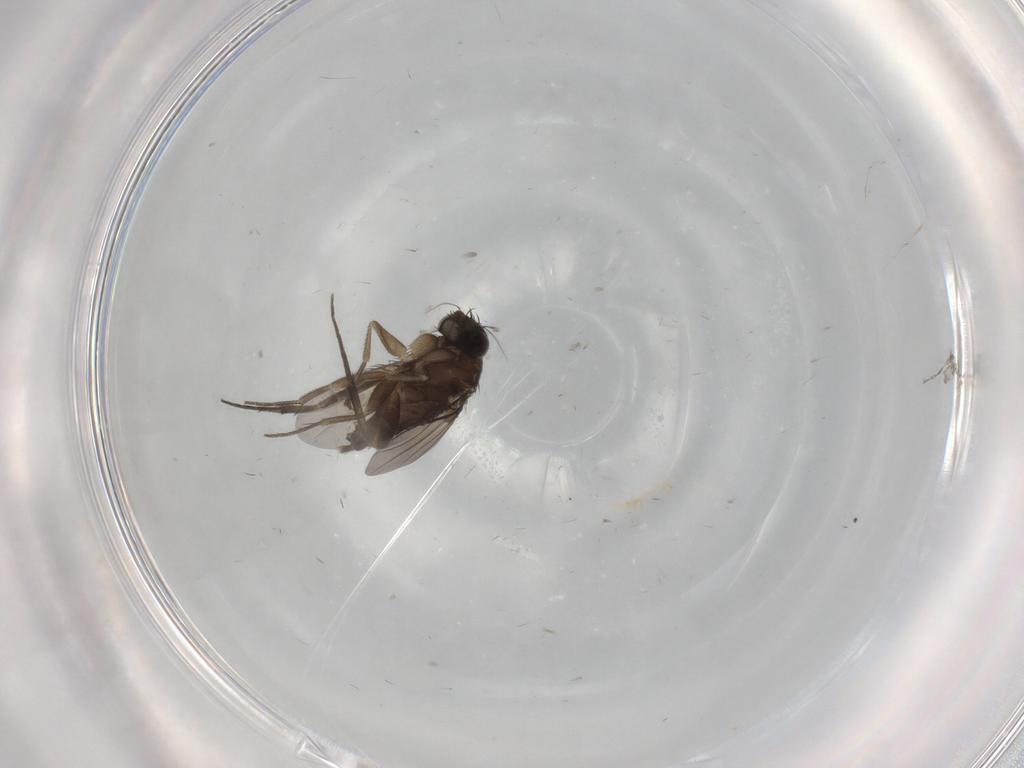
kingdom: Animalia
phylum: Arthropoda
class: Insecta
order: Diptera
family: Phoridae
